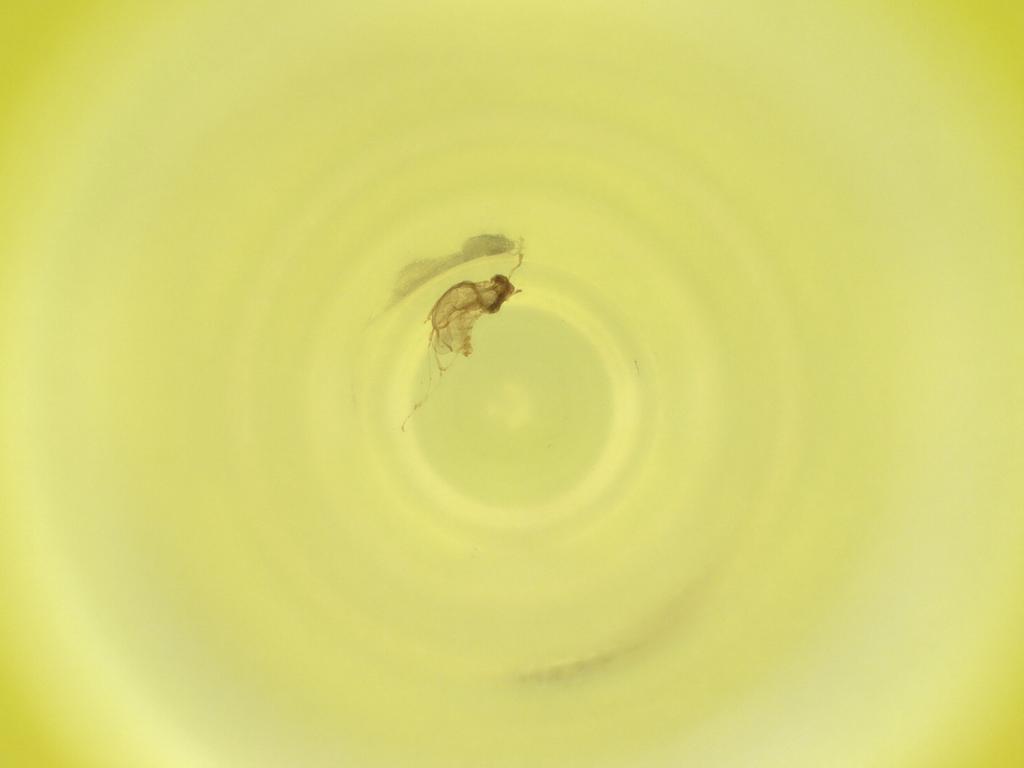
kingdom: Animalia
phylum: Arthropoda
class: Insecta
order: Diptera
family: Cecidomyiidae
